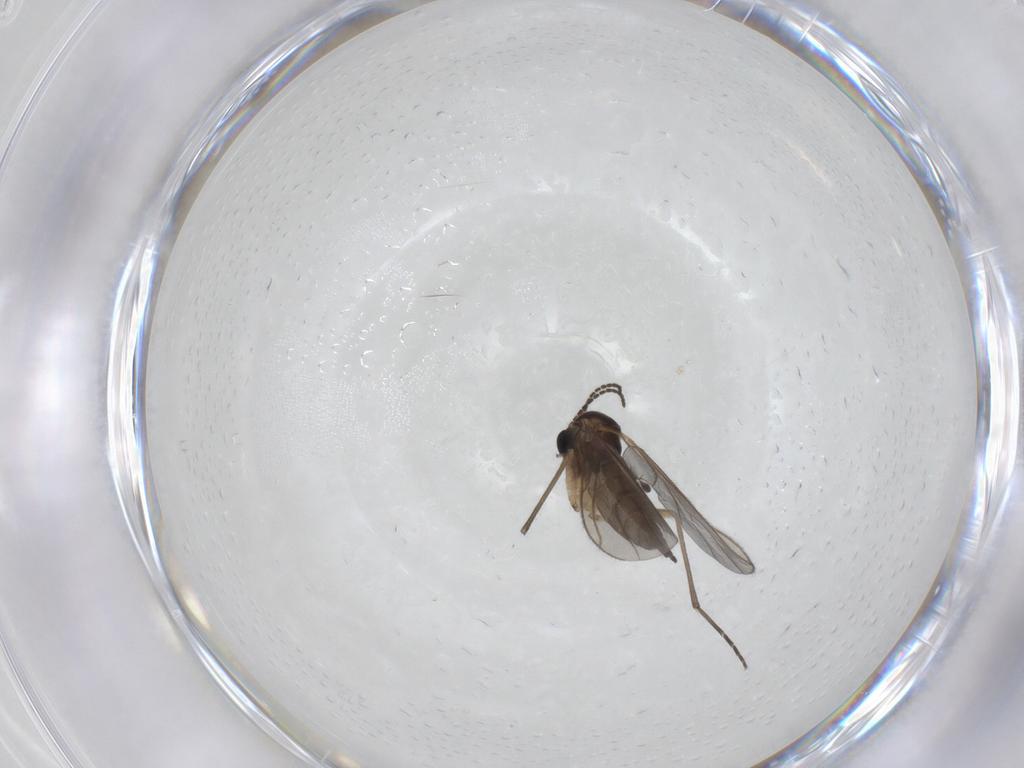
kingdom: Animalia
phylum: Arthropoda
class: Insecta
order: Diptera
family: Sciaridae
